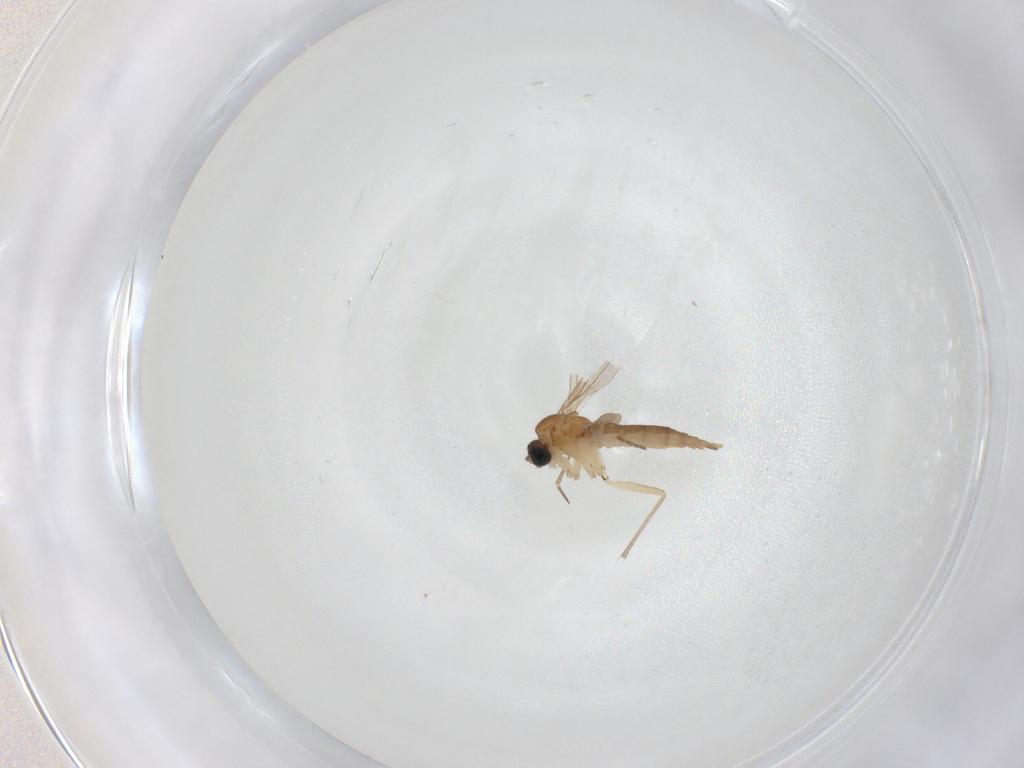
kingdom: Animalia
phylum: Arthropoda
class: Insecta
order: Diptera
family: Sciaridae
